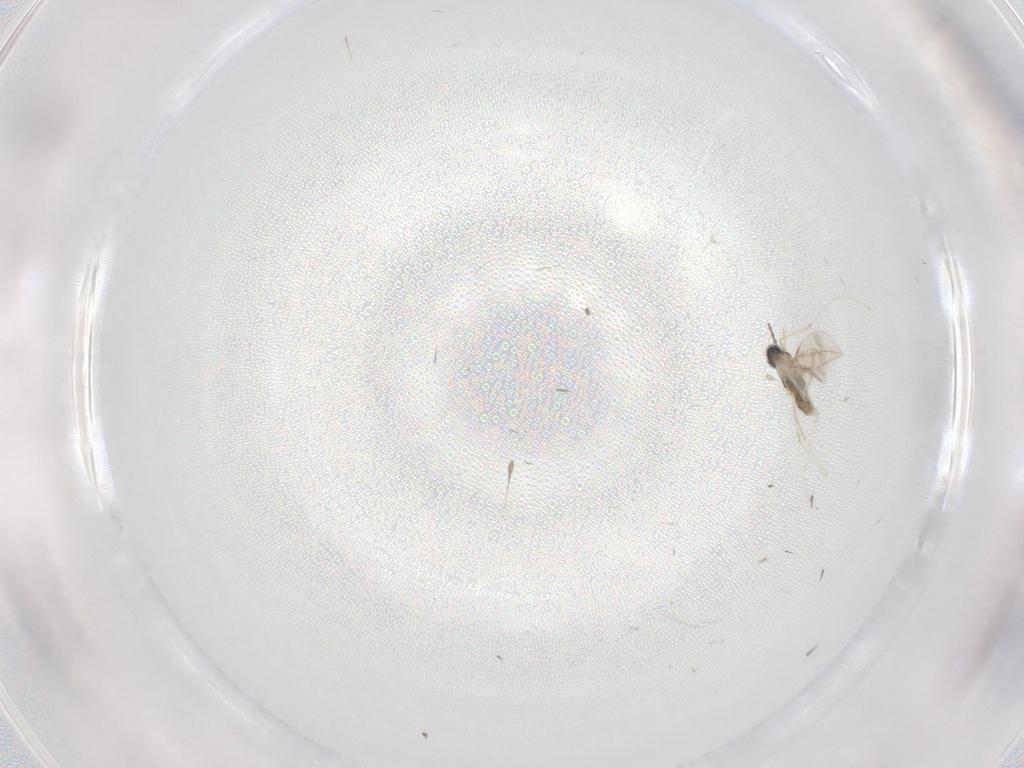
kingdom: Animalia
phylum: Arthropoda
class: Insecta
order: Diptera
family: Cecidomyiidae
